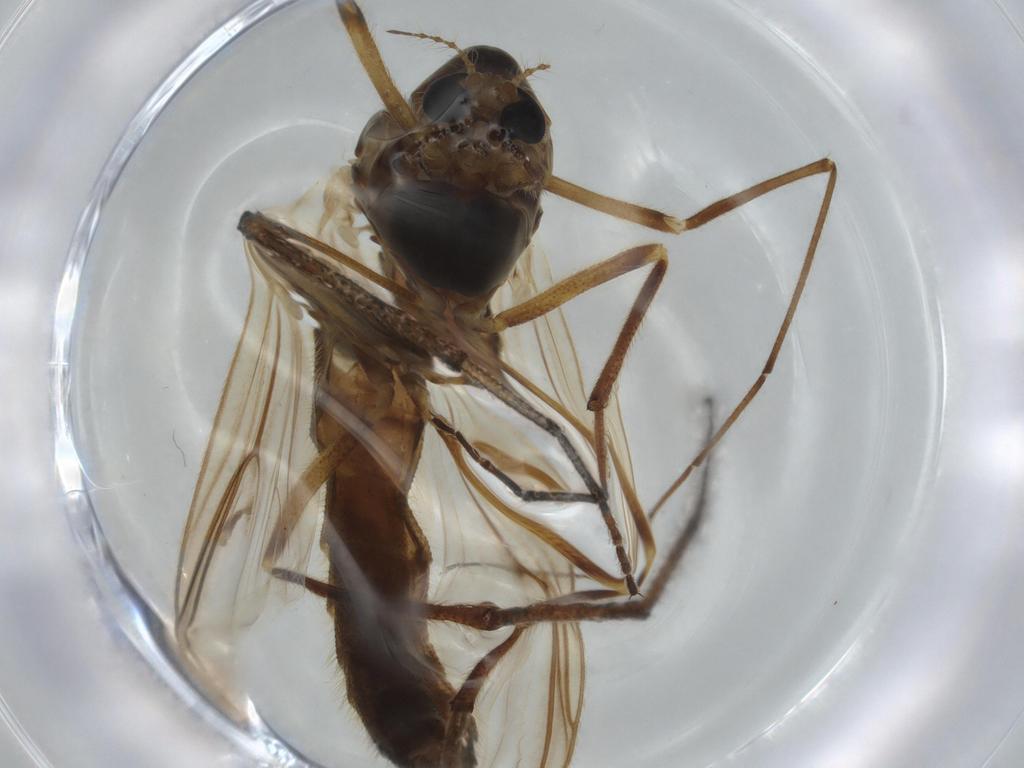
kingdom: Animalia
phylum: Arthropoda
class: Insecta
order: Diptera
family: Chironomidae
